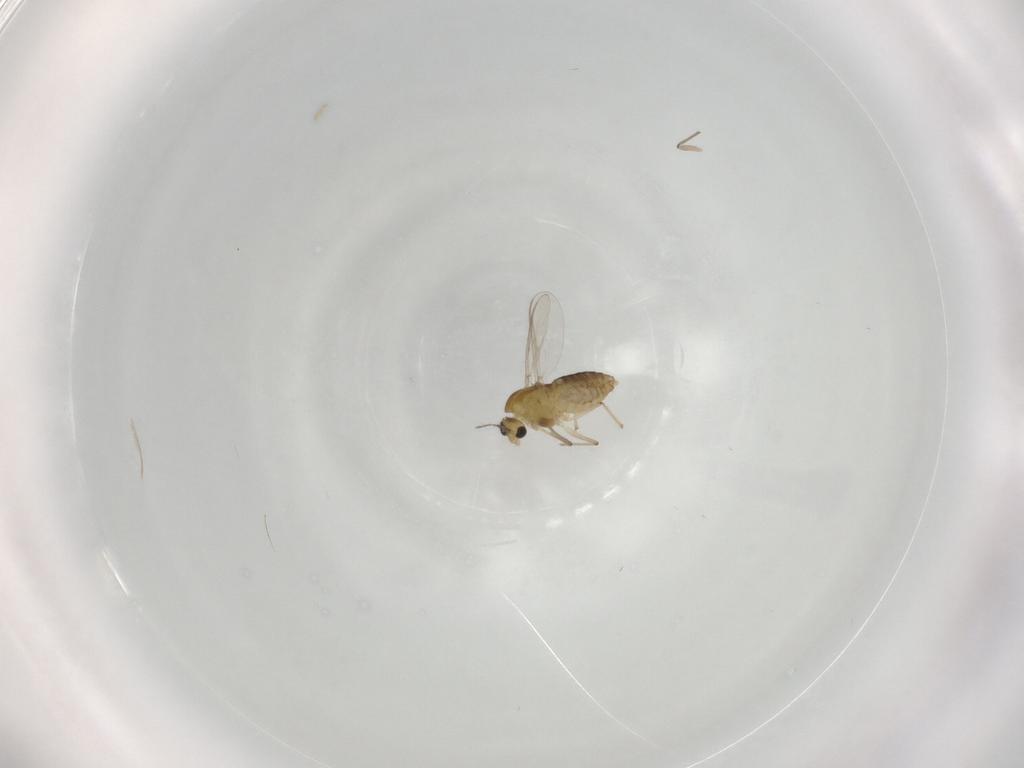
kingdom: Animalia
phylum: Arthropoda
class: Insecta
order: Diptera
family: Chironomidae
